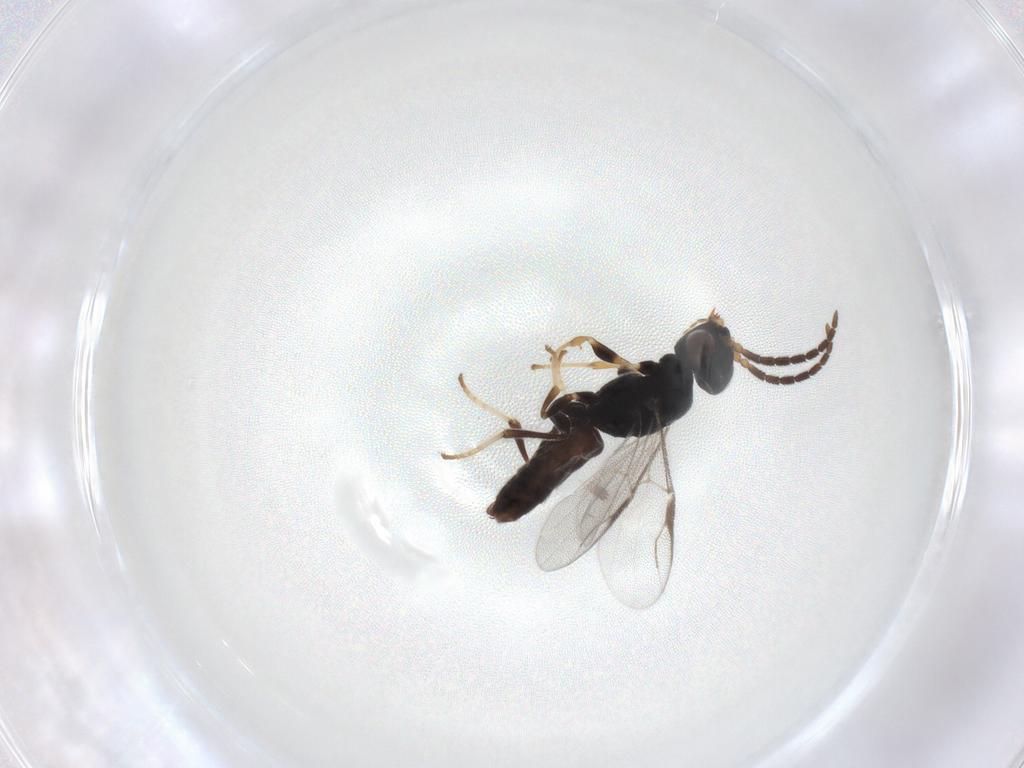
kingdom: Animalia
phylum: Arthropoda
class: Insecta
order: Hymenoptera
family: Dryinidae
